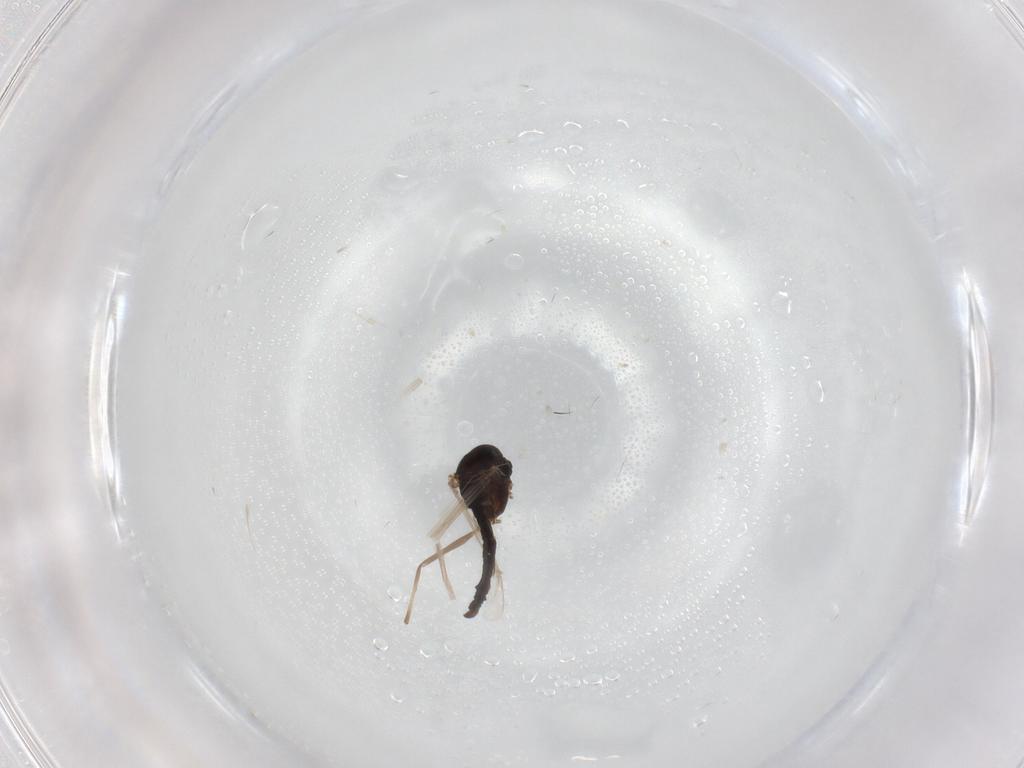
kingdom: Animalia
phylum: Arthropoda
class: Insecta
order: Diptera
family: Chironomidae
